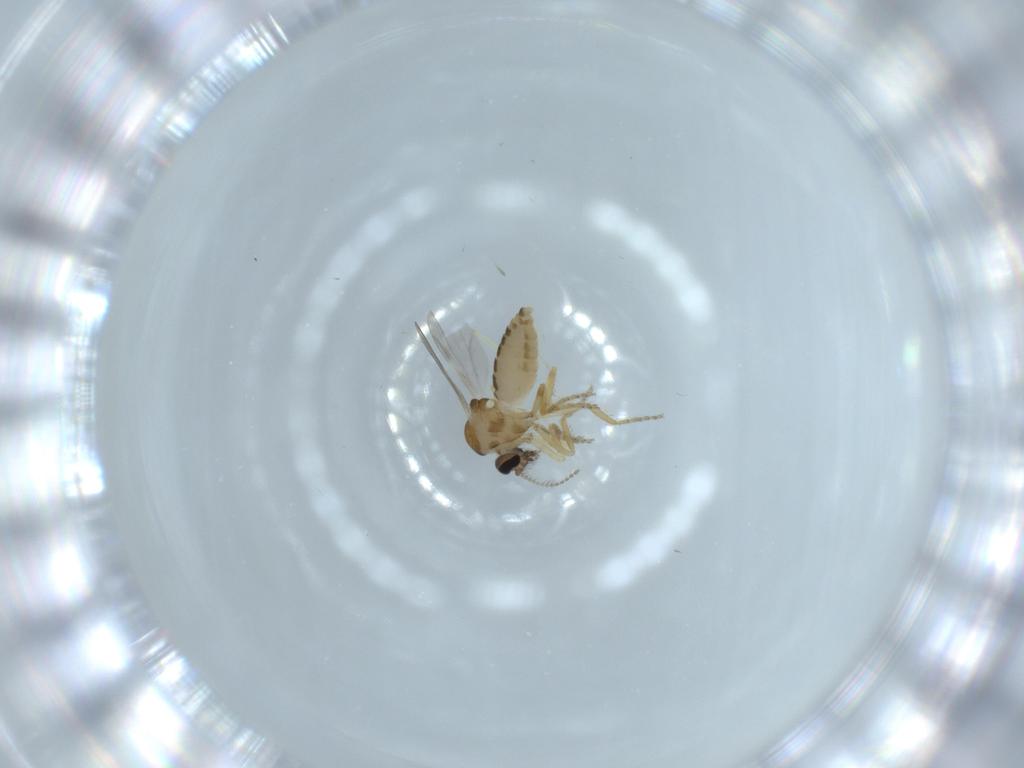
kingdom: Animalia
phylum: Arthropoda
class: Insecta
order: Diptera
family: Ceratopogonidae
